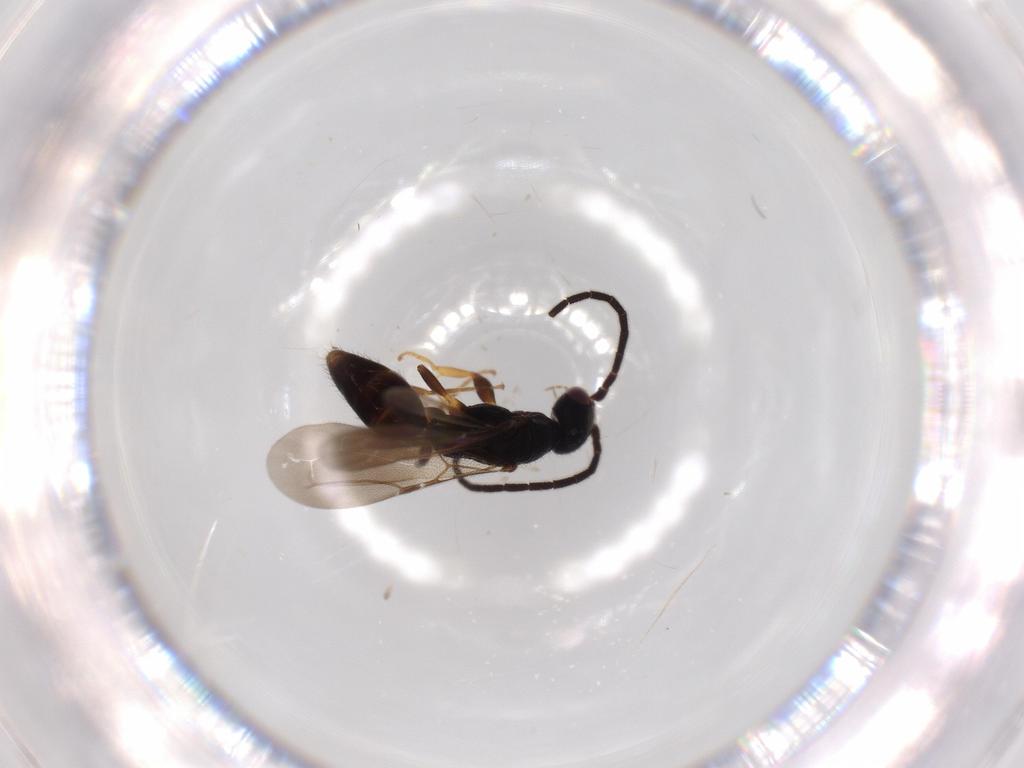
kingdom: Animalia
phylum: Arthropoda
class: Insecta
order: Hymenoptera
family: Bethylidae
